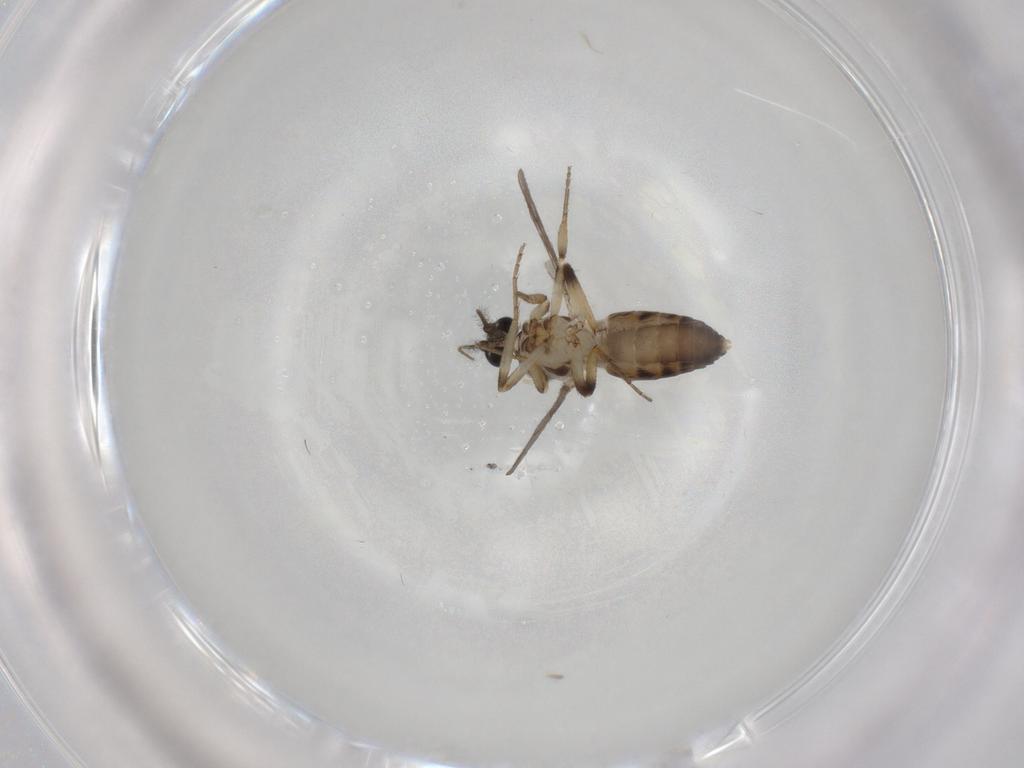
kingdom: Animalia
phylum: Arthropoda
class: Insecta
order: Diptera
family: Ceratopogonidae
